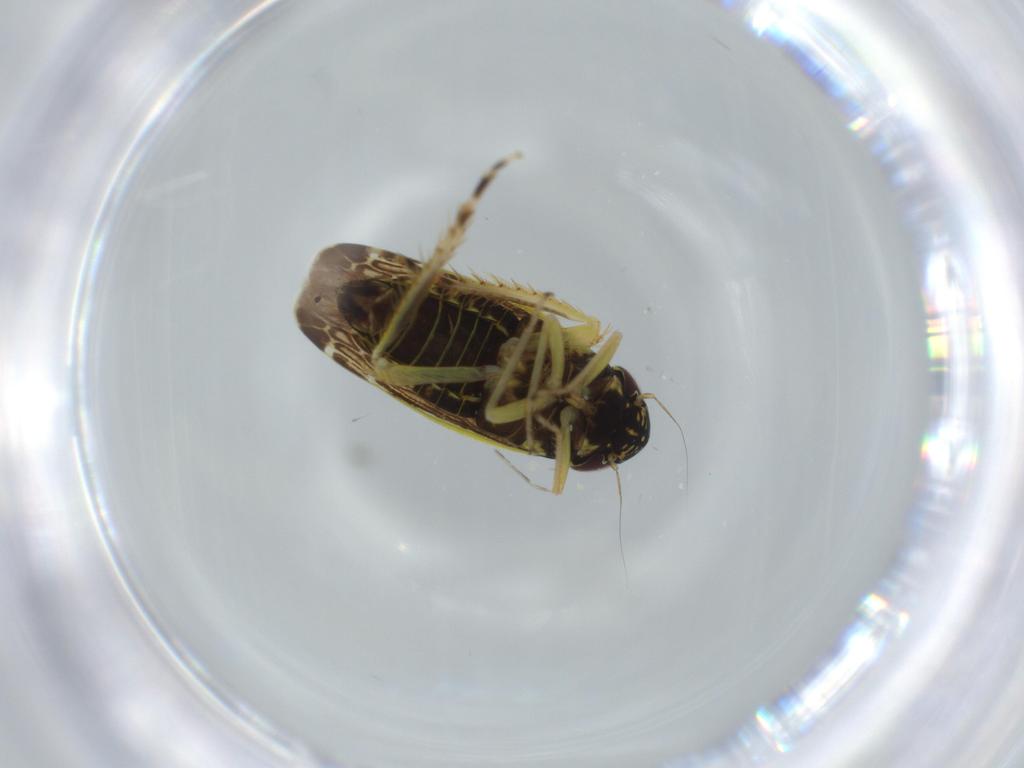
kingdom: Animalia
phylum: Arthropoda
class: Insecta
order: Hemiptera
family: Cicadellidae
